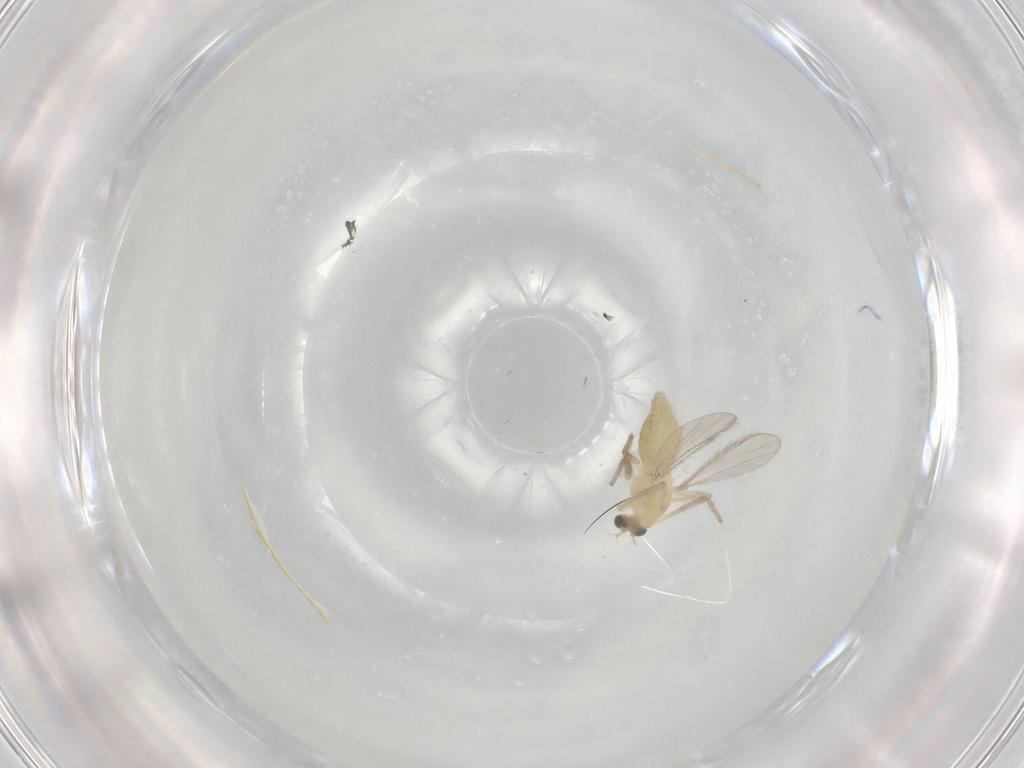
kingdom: Animalia
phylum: Arthropoda
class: Insecta
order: Diptera
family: Chironomidae
